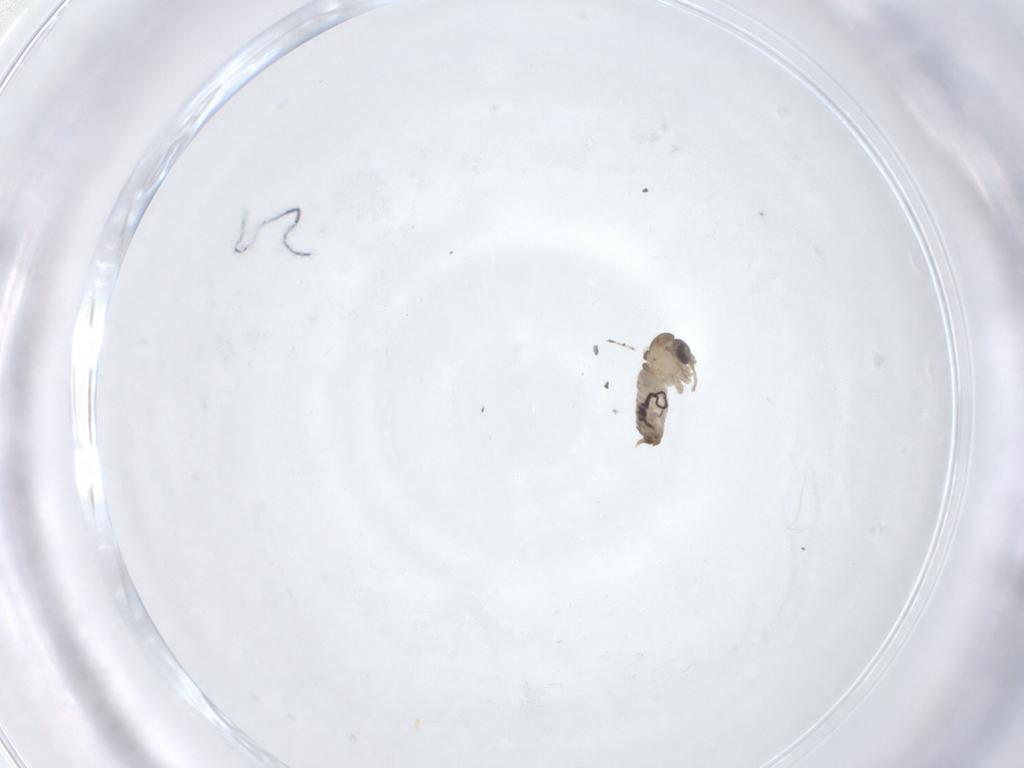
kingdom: Animalia
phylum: Arthropoda
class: Insecta
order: Diptera
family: Psychodidae
